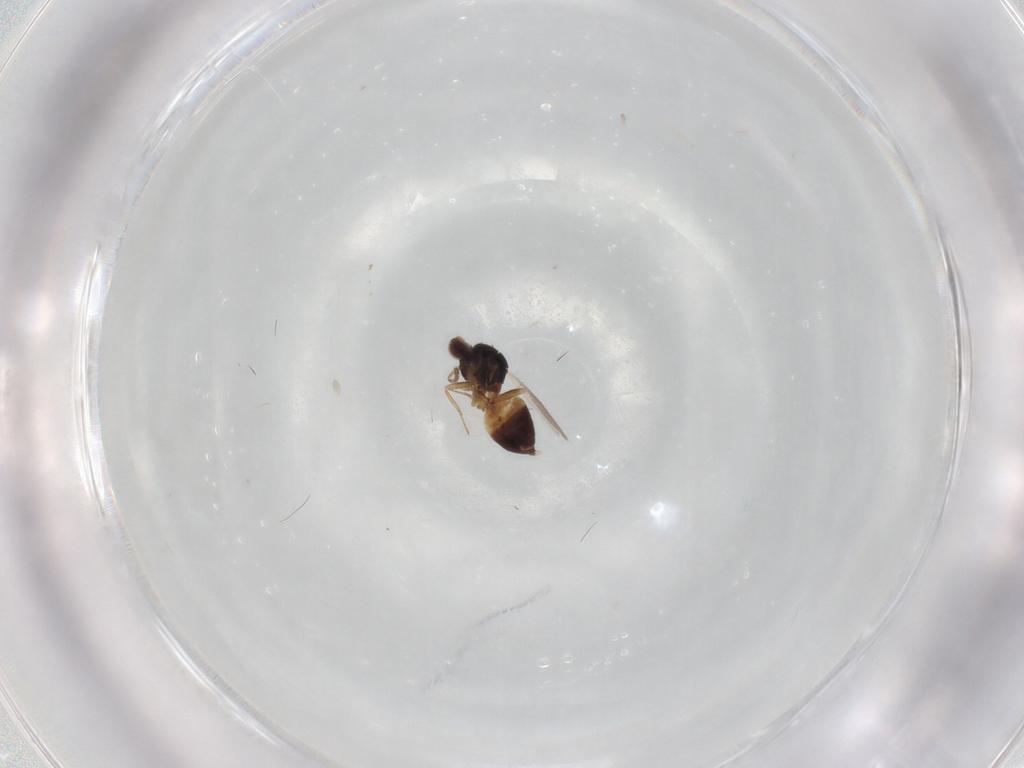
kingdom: Animalia
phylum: Arthropoda
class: Insecta
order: Hymenoptera
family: Eulophidae
